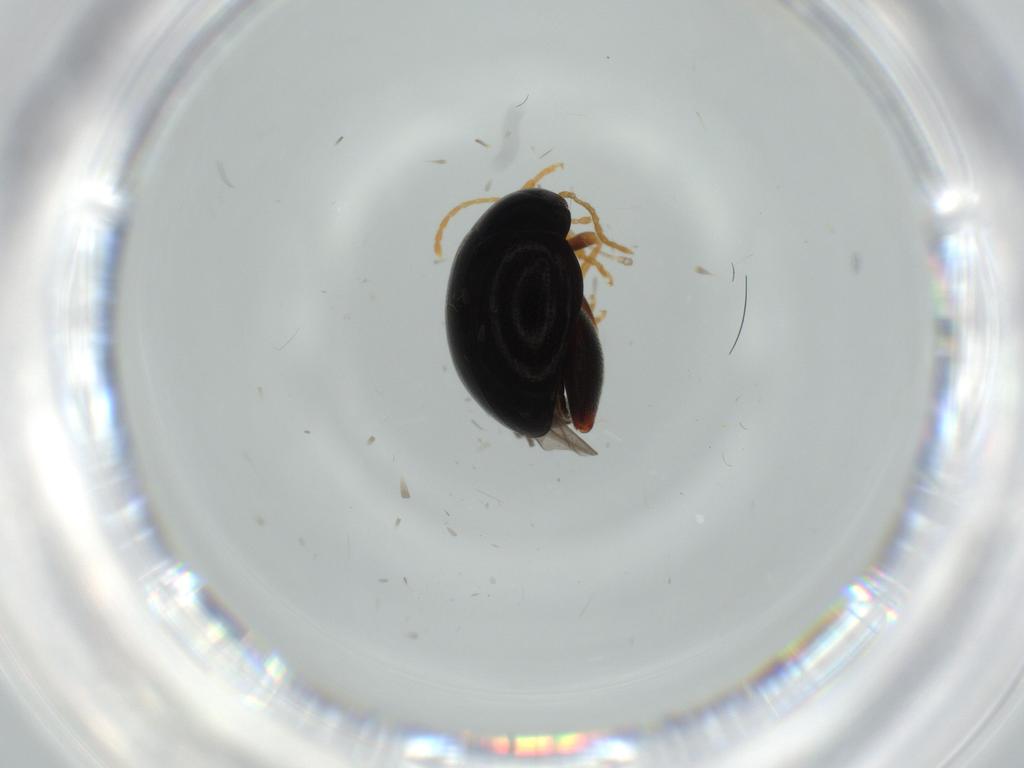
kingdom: Animalia
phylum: Arthropoda
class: Insecta
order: Coleoptera
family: Chrysomelidae
